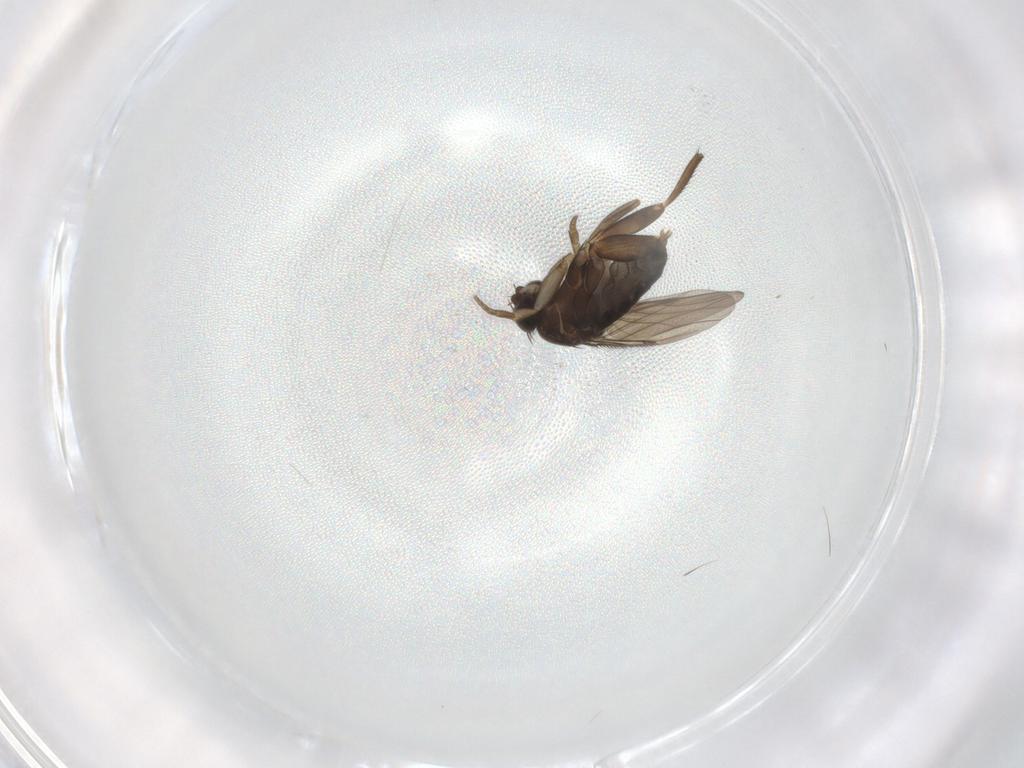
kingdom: Animalia
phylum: Arthropoda
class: Insecta
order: Diptera
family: Phoridae
